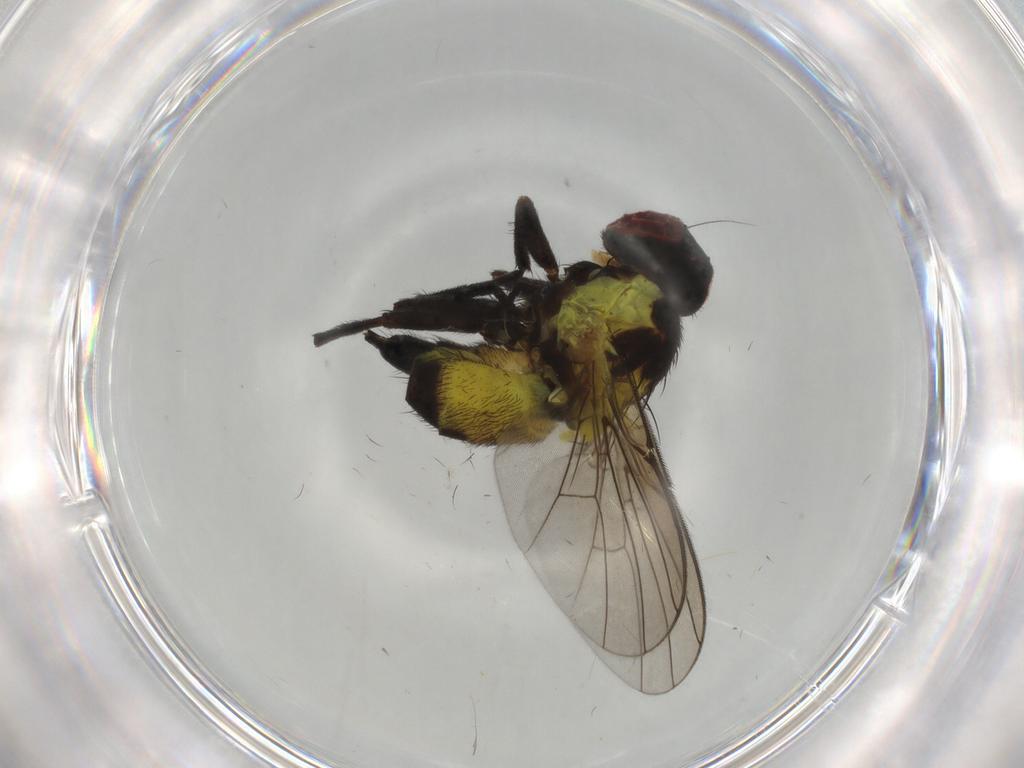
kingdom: Animalia
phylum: Arthropoda
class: Insecta
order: Diptera
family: Agromyzidae
